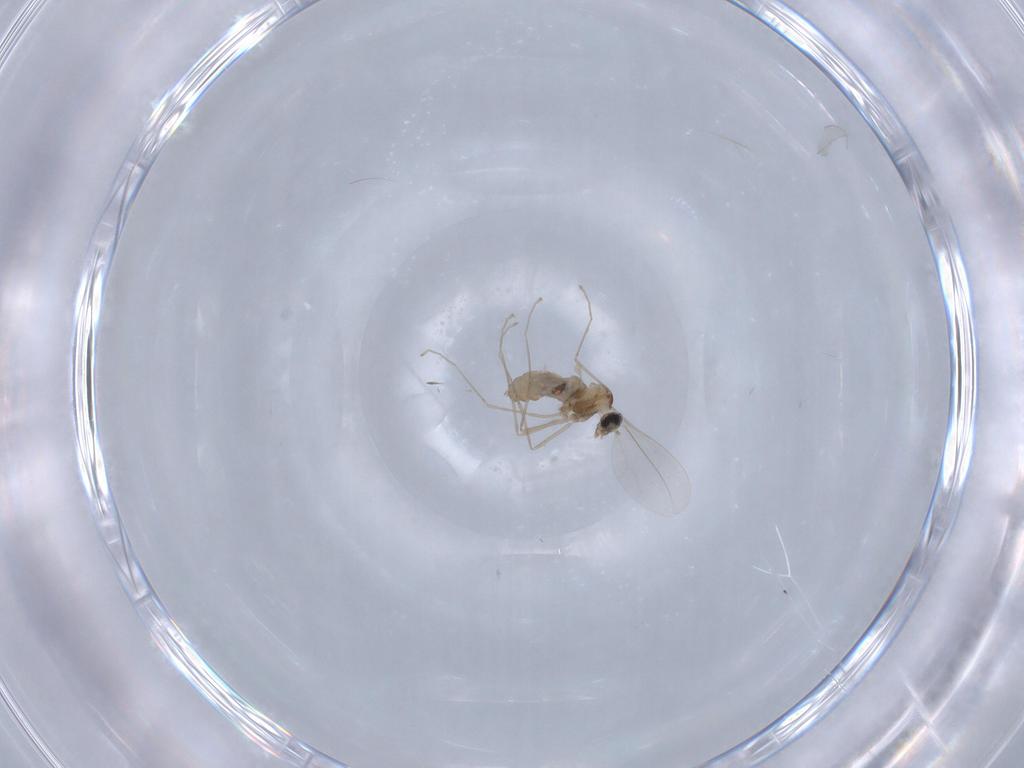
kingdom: Animalia
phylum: Arthropoda
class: Insecta
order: Diptera
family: Cecidomyiidae
